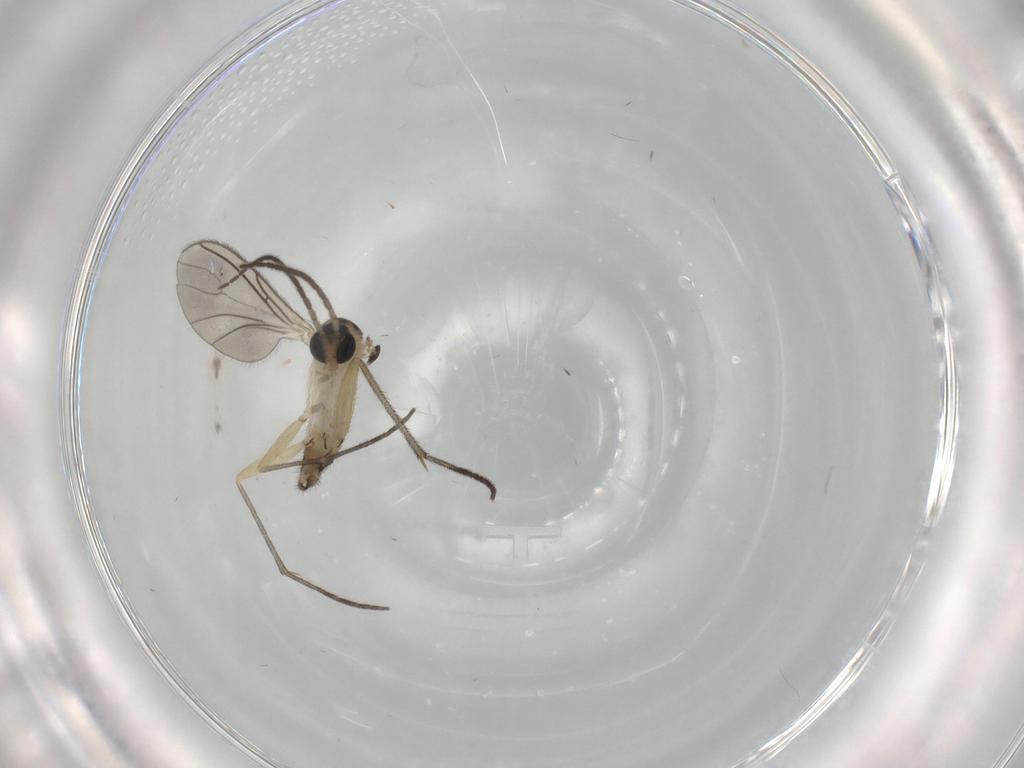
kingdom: Animalia
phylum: Arthropoda
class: Insecta
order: Diptera
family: Sciaridae
